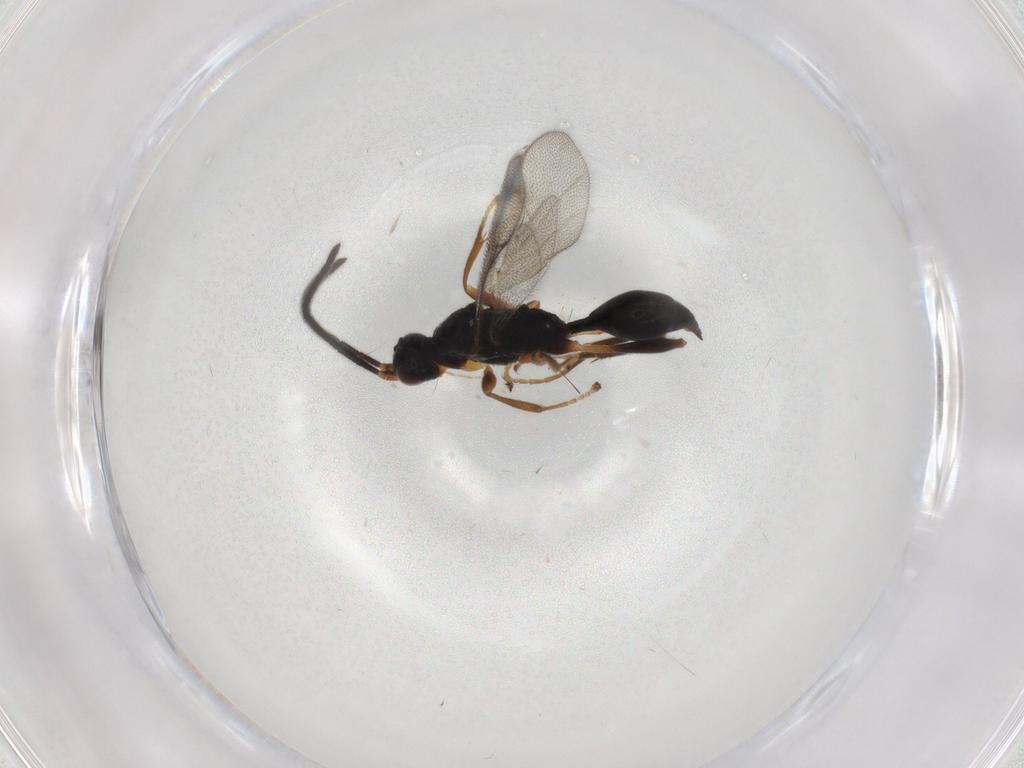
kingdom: Animalia
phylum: Arthropoda
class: Insecta
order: Hymenoptera
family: Proctotrupidae
